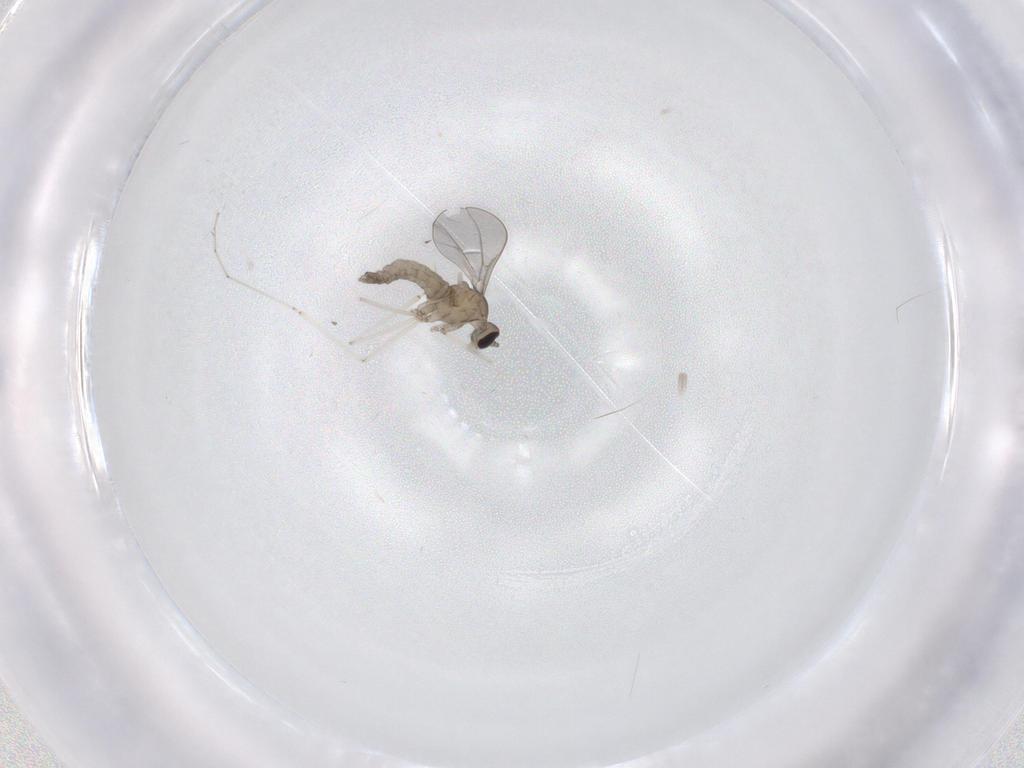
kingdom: Animalia
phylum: Arthropoda
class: Insecta
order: Diptera
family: Cecidomyiidae
